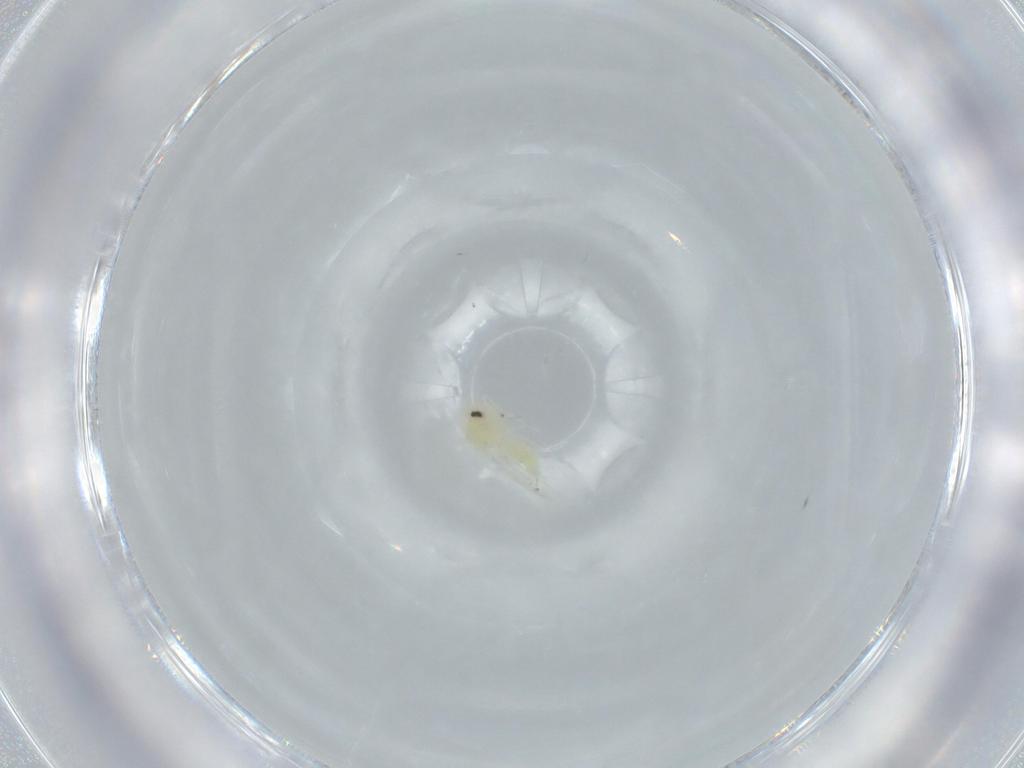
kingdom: Animalia
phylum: Arthropoda
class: Insecta
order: Hemiptera
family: Aleyrodidae
